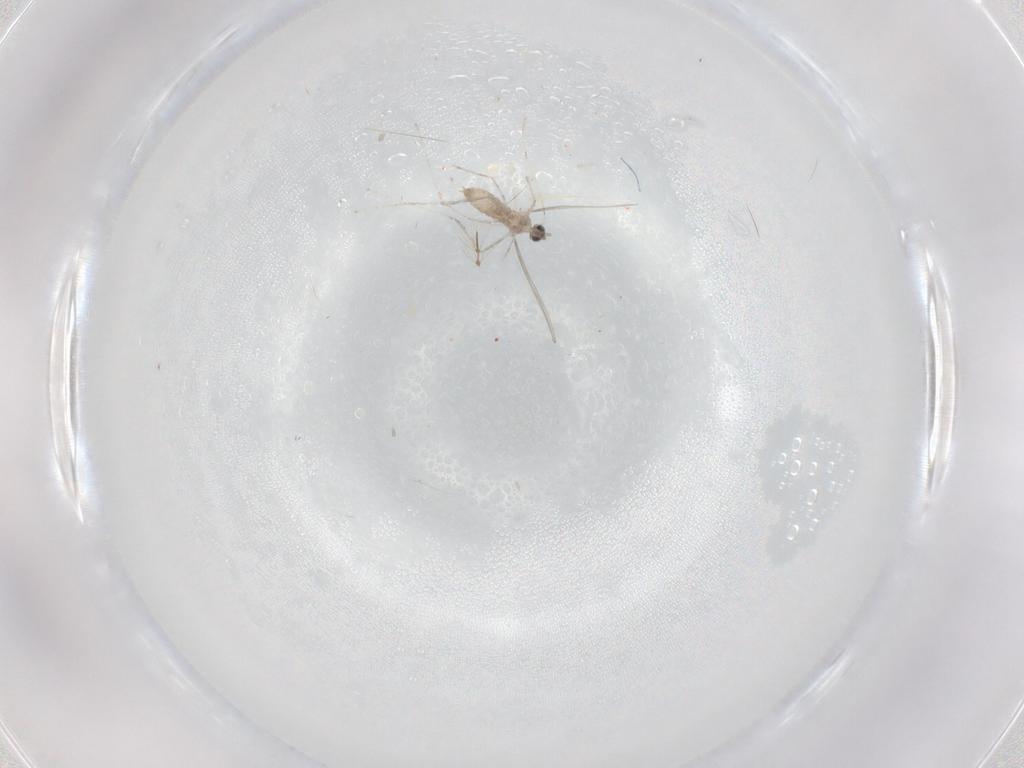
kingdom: Animalia
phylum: Arthropoda
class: Insecta
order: Diptera
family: Cecidomyiidae
